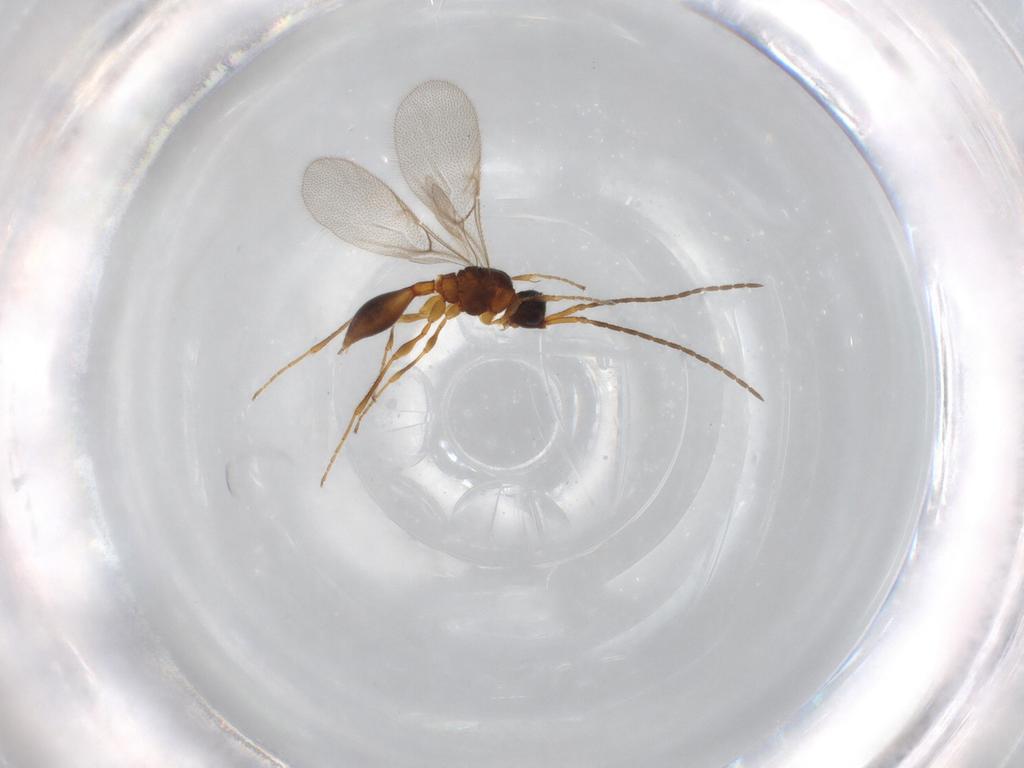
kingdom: Animalia
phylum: Arthropoda
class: Insecta
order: Hymenoptera
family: Diapriidae
